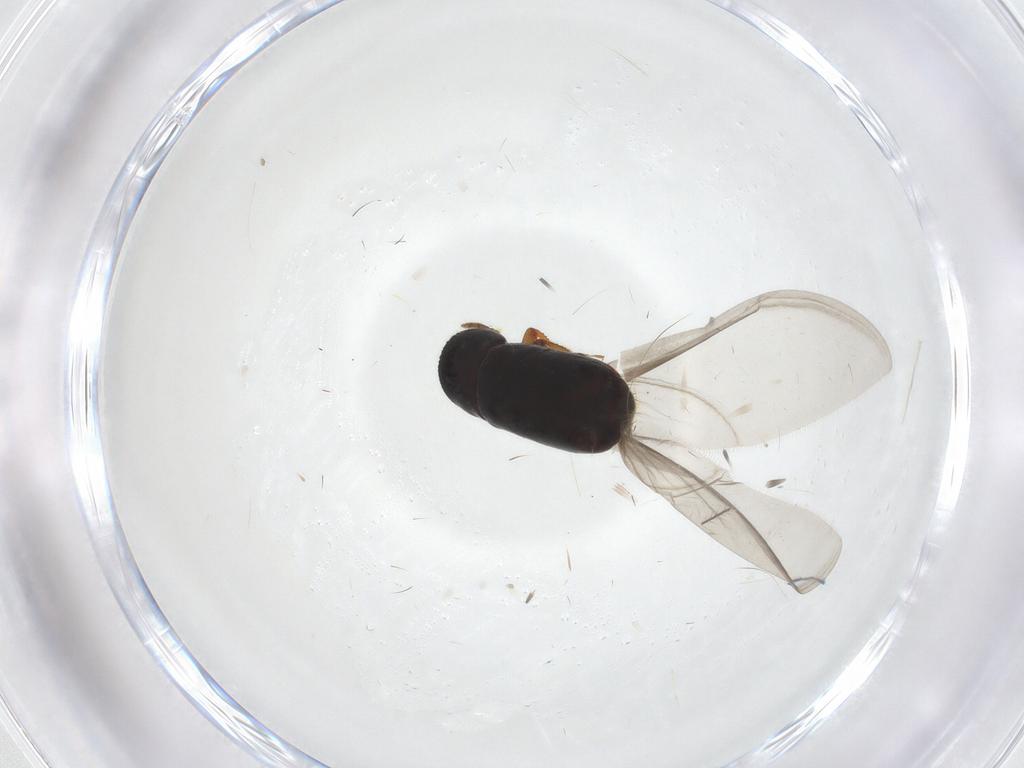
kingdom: Animalia
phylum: Arthropoda
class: Insecta
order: Coleoptera
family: Curculionidae
